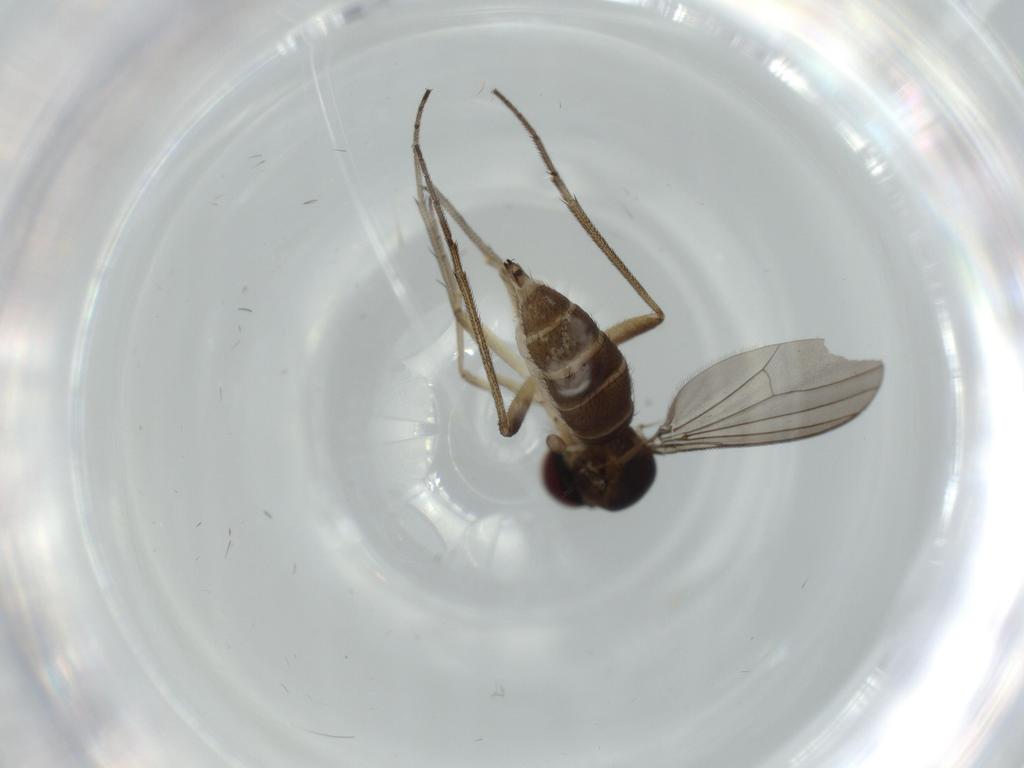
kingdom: Animalia
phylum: Arthropoda
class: Insecta
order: Diptera
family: Dolichopodidae
